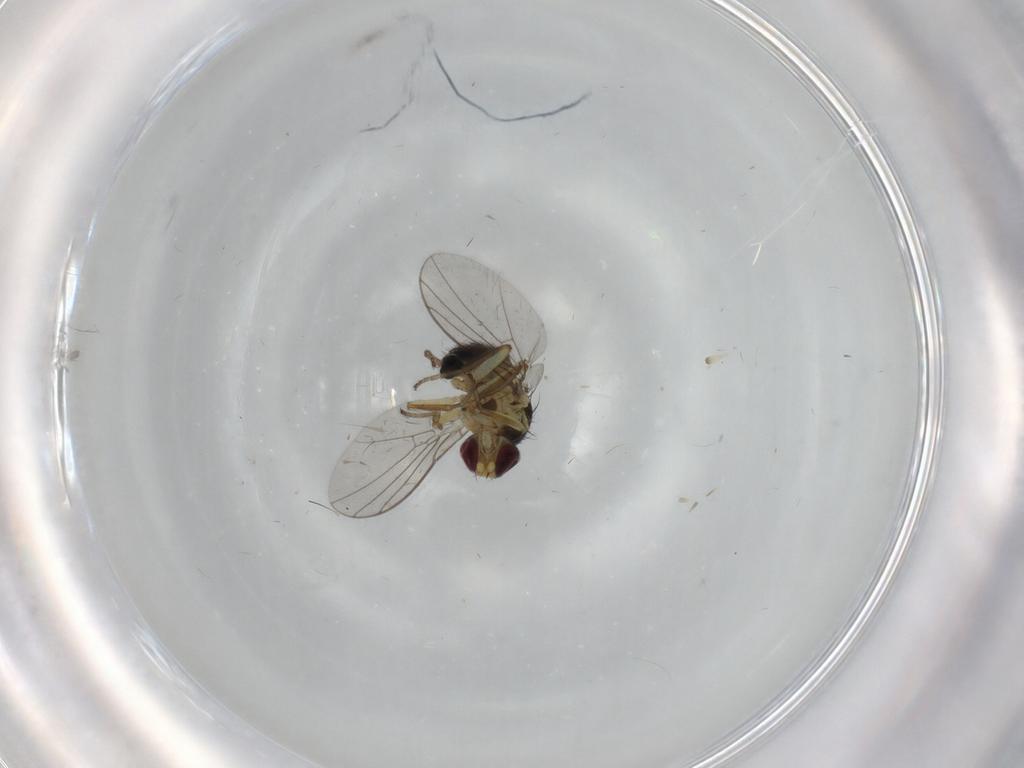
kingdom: Animalia
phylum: Arthropoda
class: Insecta
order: Diptera
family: Agromyzidae
